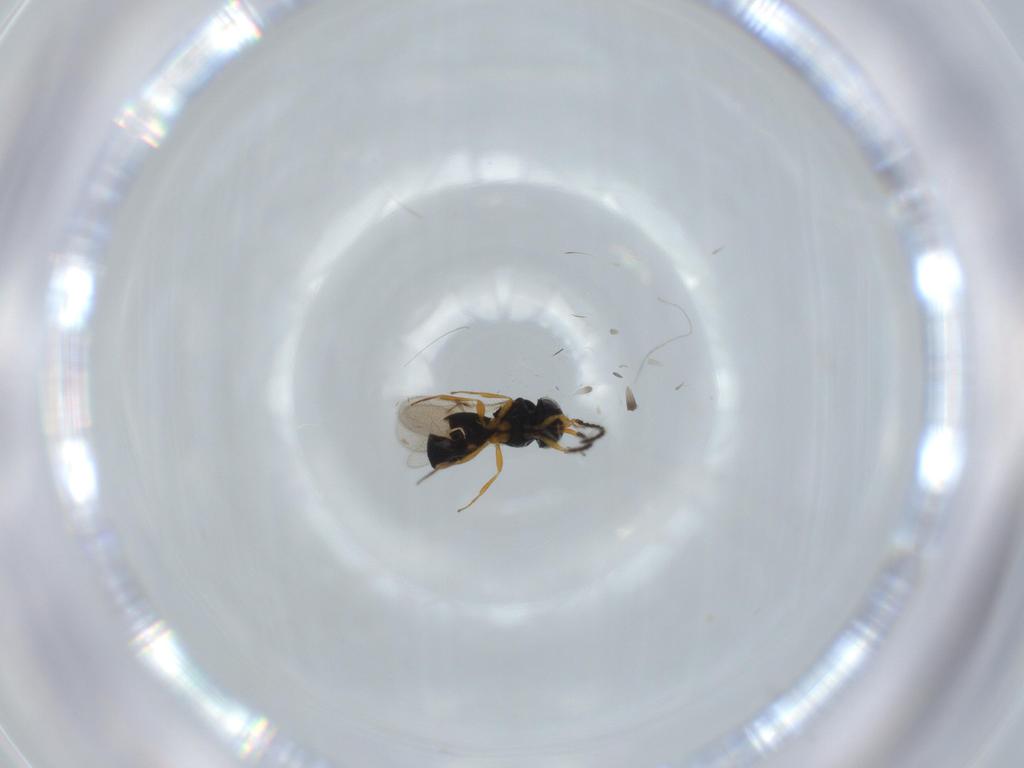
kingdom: Animalia
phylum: Arthropoda
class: Insecta
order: Hymenoptera
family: Scelionidae
